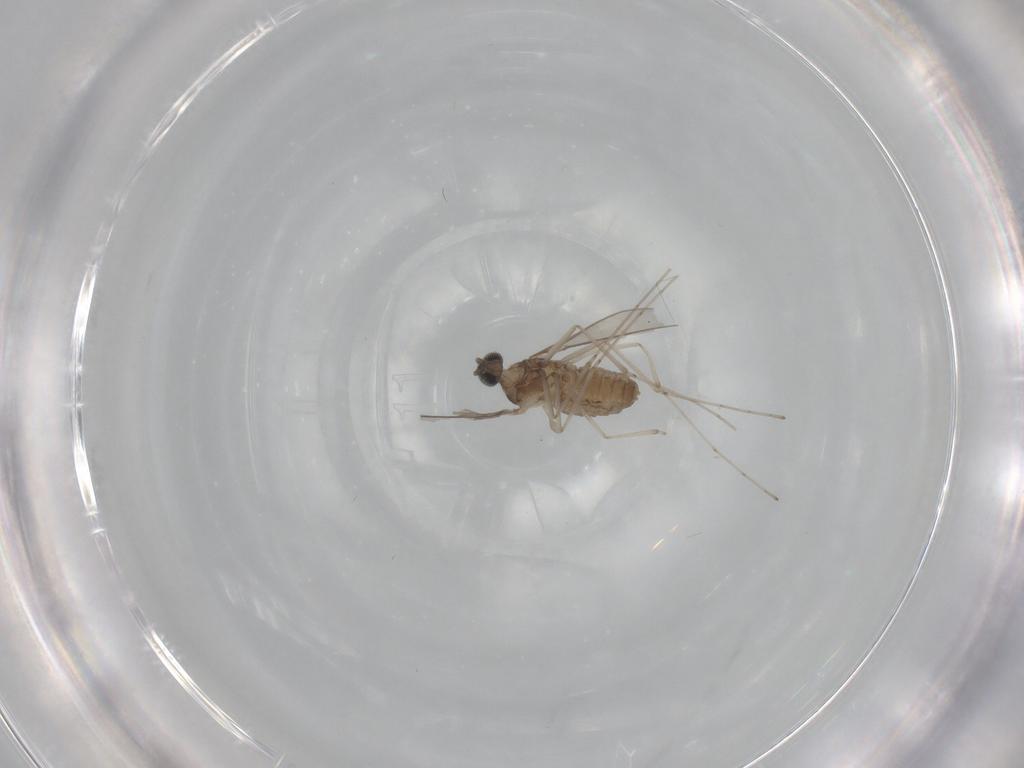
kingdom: Animalia
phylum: Arthropoda
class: Insecta
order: Diptera
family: Cecidomyiidae
